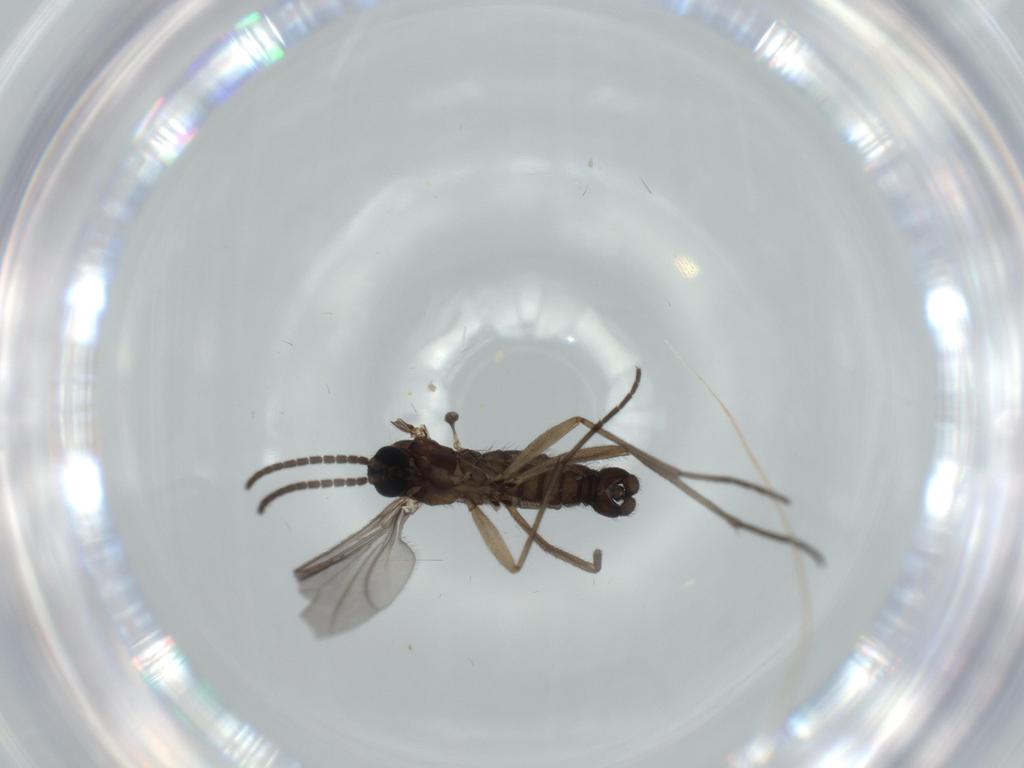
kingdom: Animalia
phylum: Arthropoda
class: Insecta
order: Diptera
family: Sciaridae
